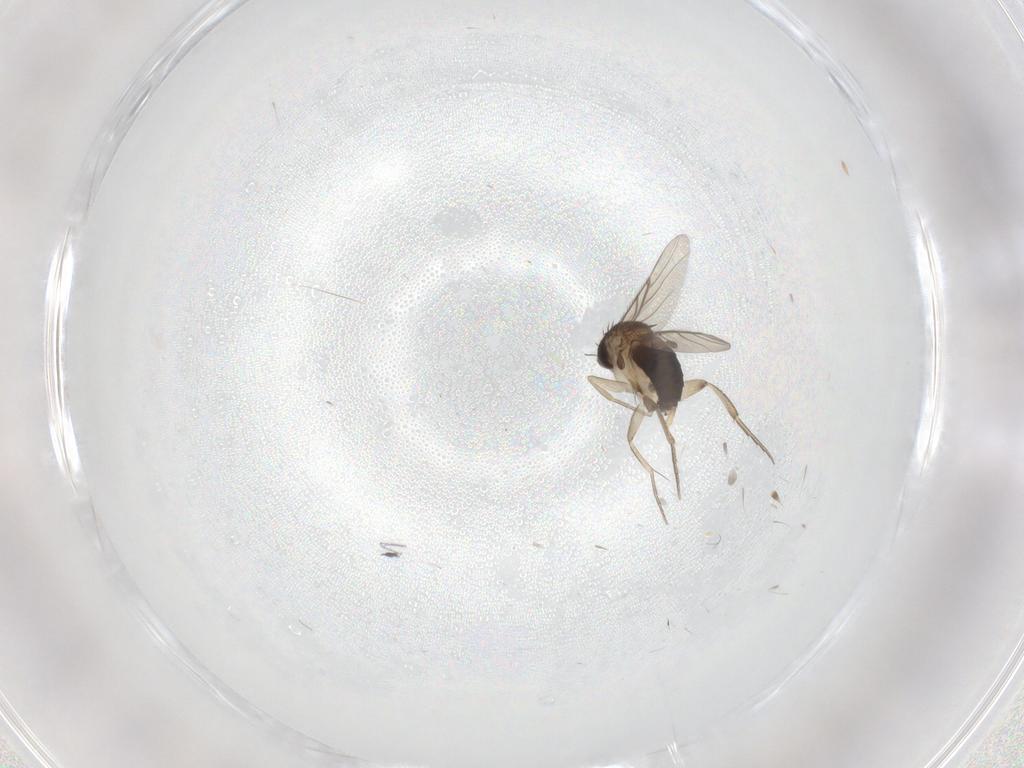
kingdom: Animalia
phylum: Arthropoda
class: Insecta
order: Diptera
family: Phoridae
